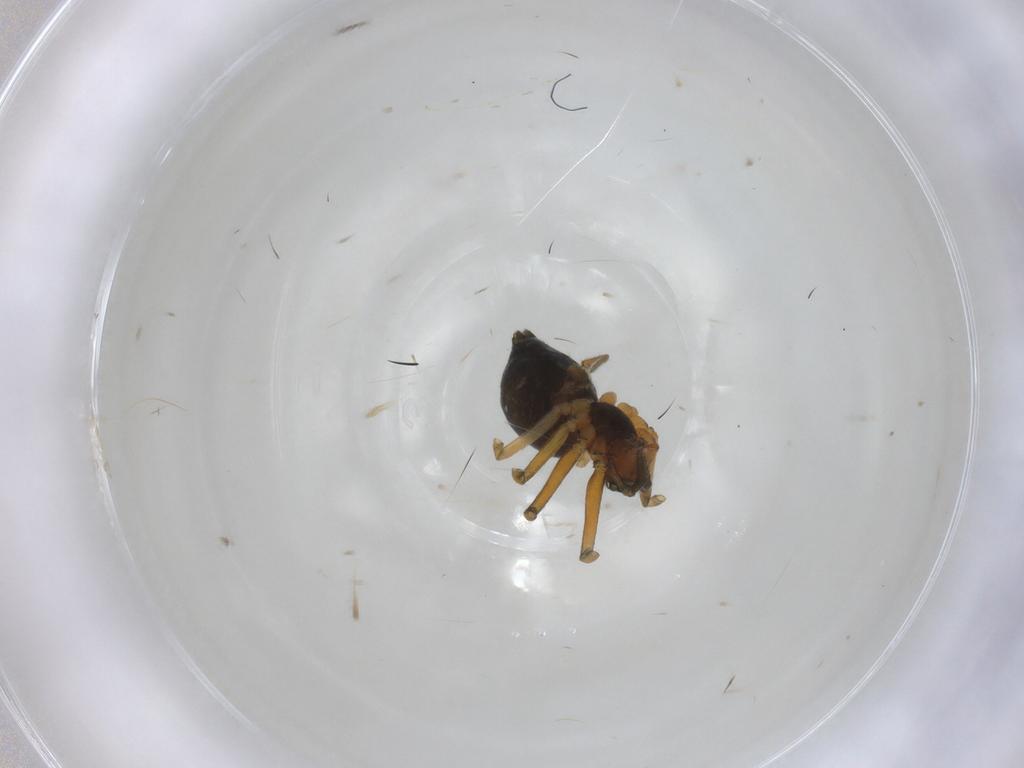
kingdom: Animalia
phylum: Arthropoda
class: Arachnida
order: Araneae
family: Linyphiidae
